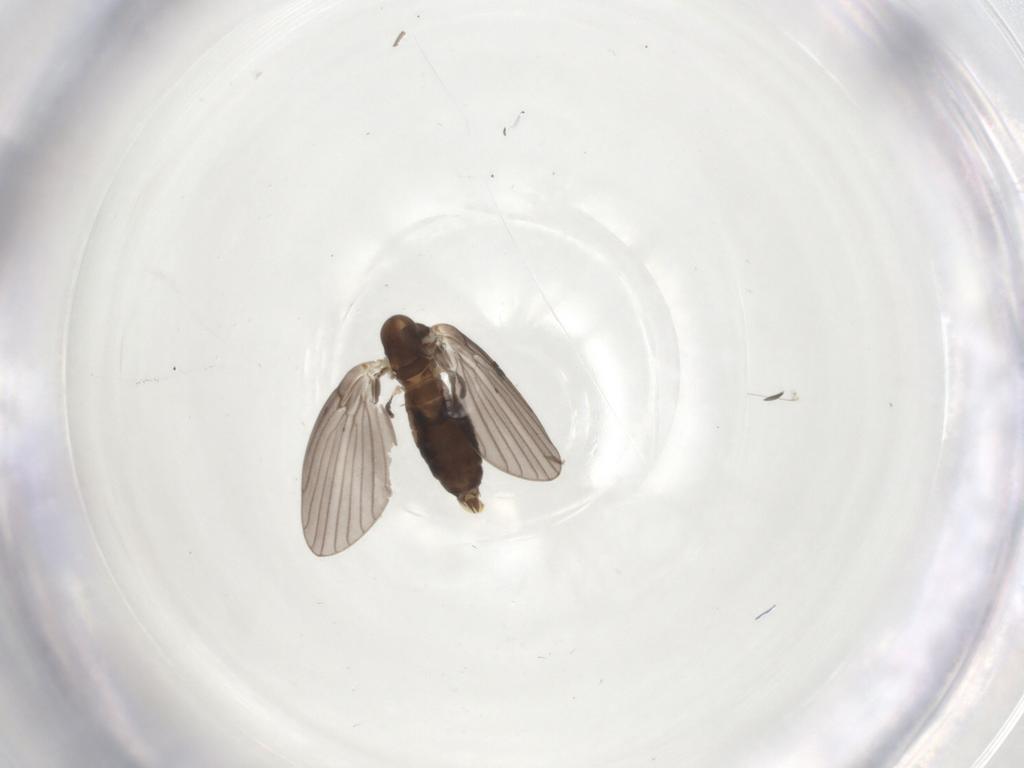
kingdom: Animalia
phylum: Arthropoda
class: Insecta
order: Diptera
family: Psychodidae
